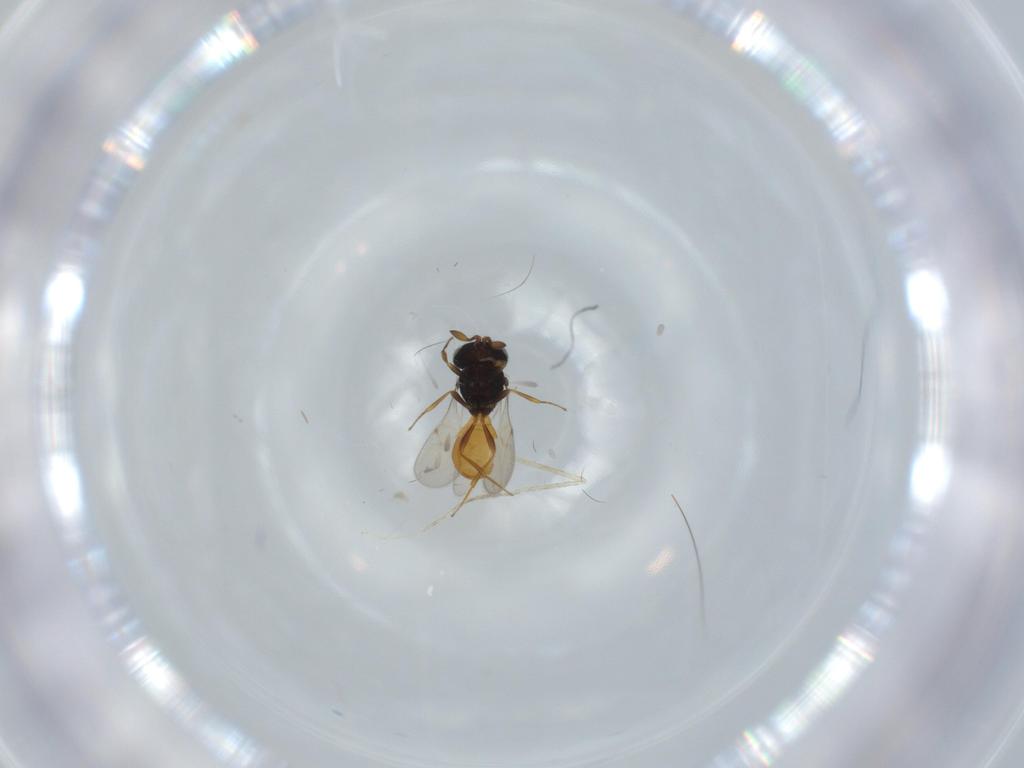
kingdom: Animalia
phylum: Arthropoda
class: Insecta
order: Hymenoptera
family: Scelionidae
